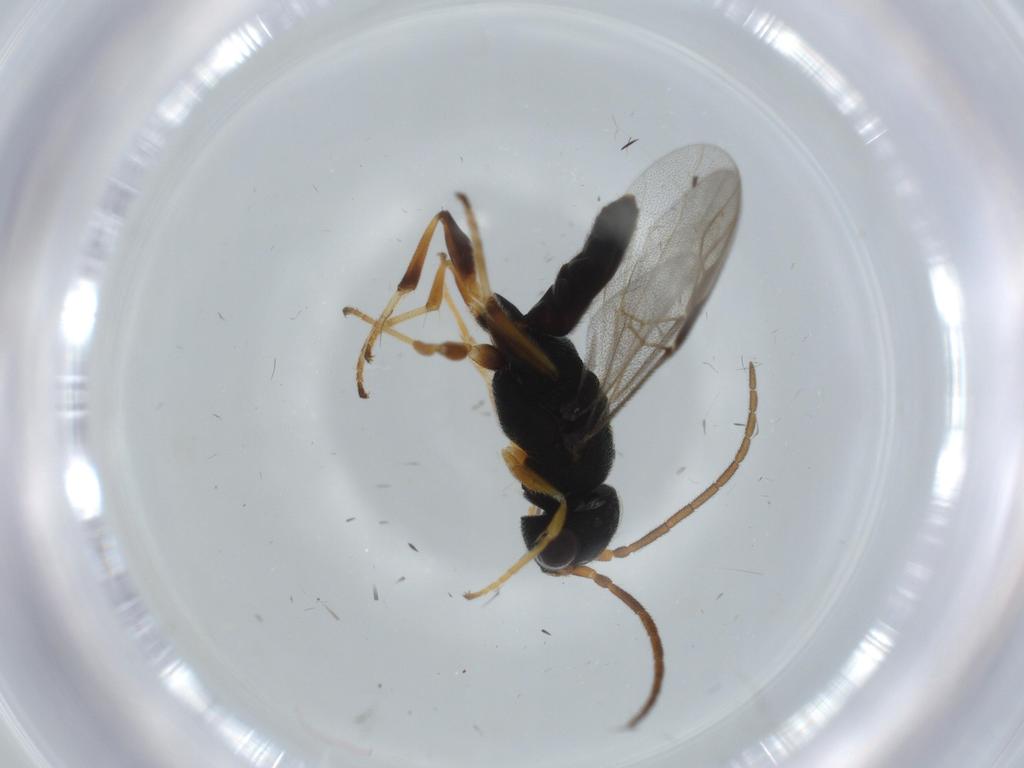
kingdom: Animalia
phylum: Arthropoda
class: Insecta
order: Hymenoptera
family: Dryinidae
